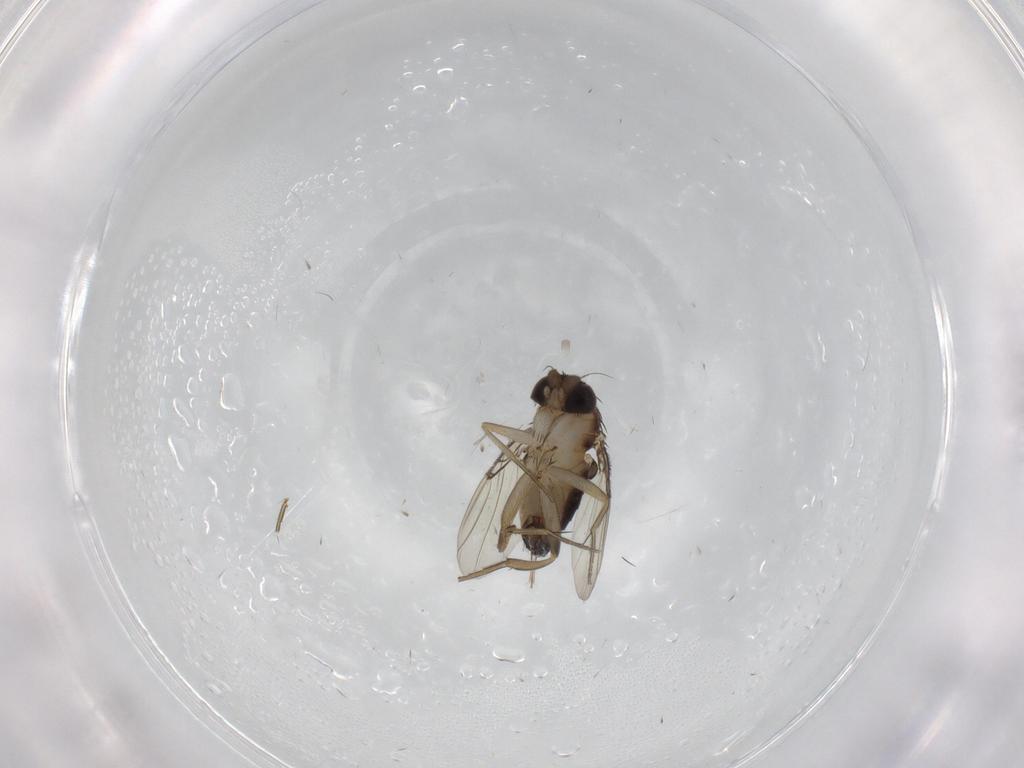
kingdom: Animalia
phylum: Arthropoda
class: Insecta
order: Diptera
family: Phoridae
